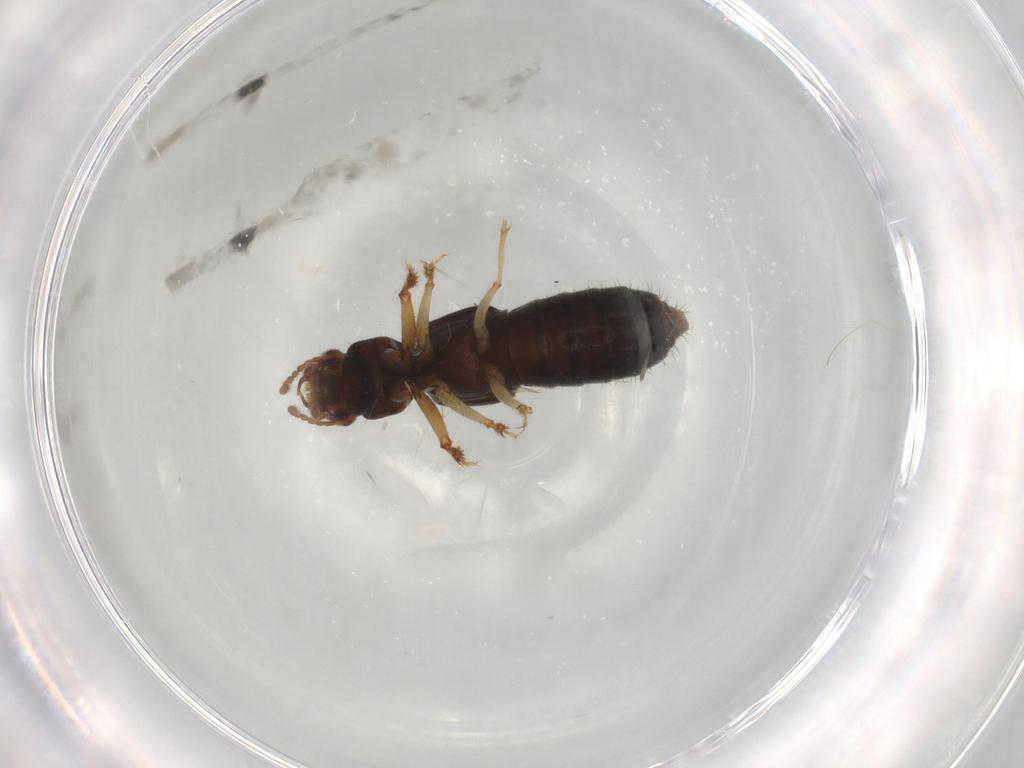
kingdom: Animalia
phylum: Arthropoda
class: Insecta
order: Coleoptera
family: Staphylinidae
